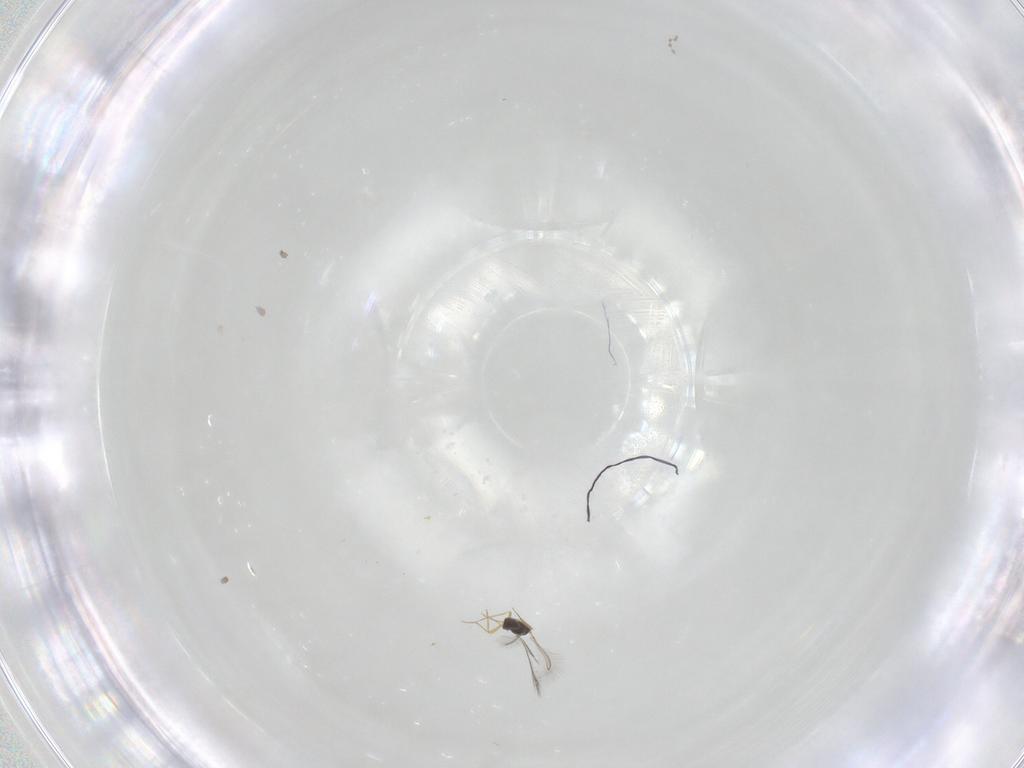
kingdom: Animalia
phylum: Arthropoda
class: Insecta
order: Hymenoptera
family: Mymaridae
